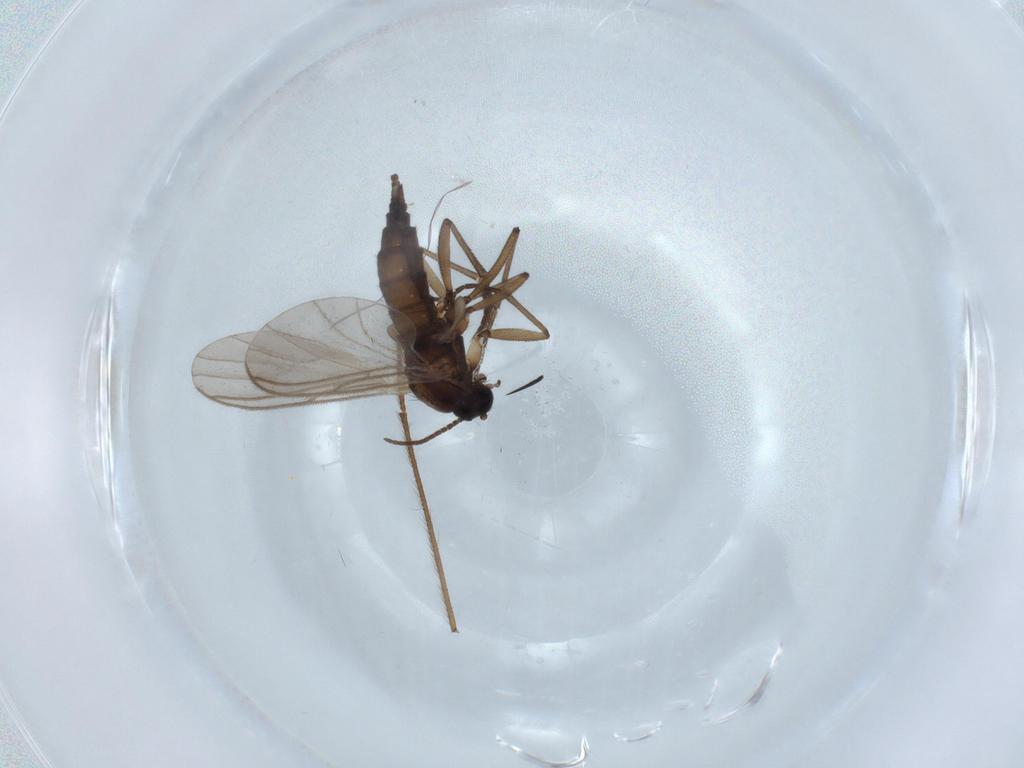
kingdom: Animalia
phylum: Arthropoda
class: Insecta
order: Diptera
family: Sciaridae
